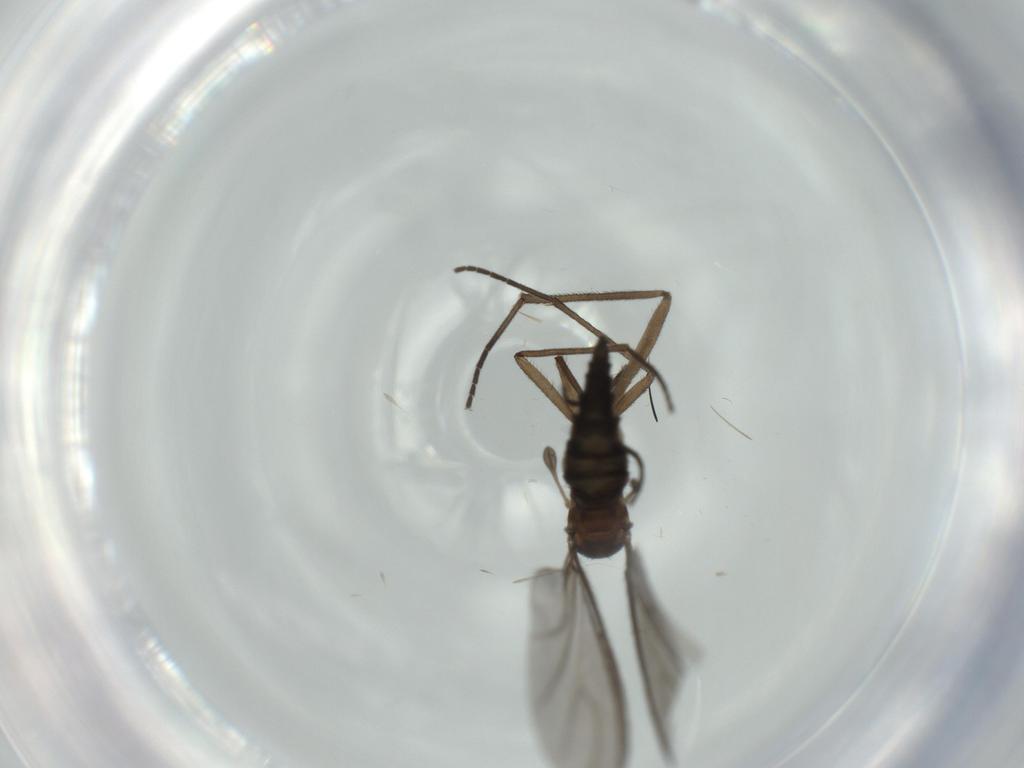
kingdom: Animalia
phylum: Arthropoda
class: Insecta
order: Diptera
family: Sciaridae
